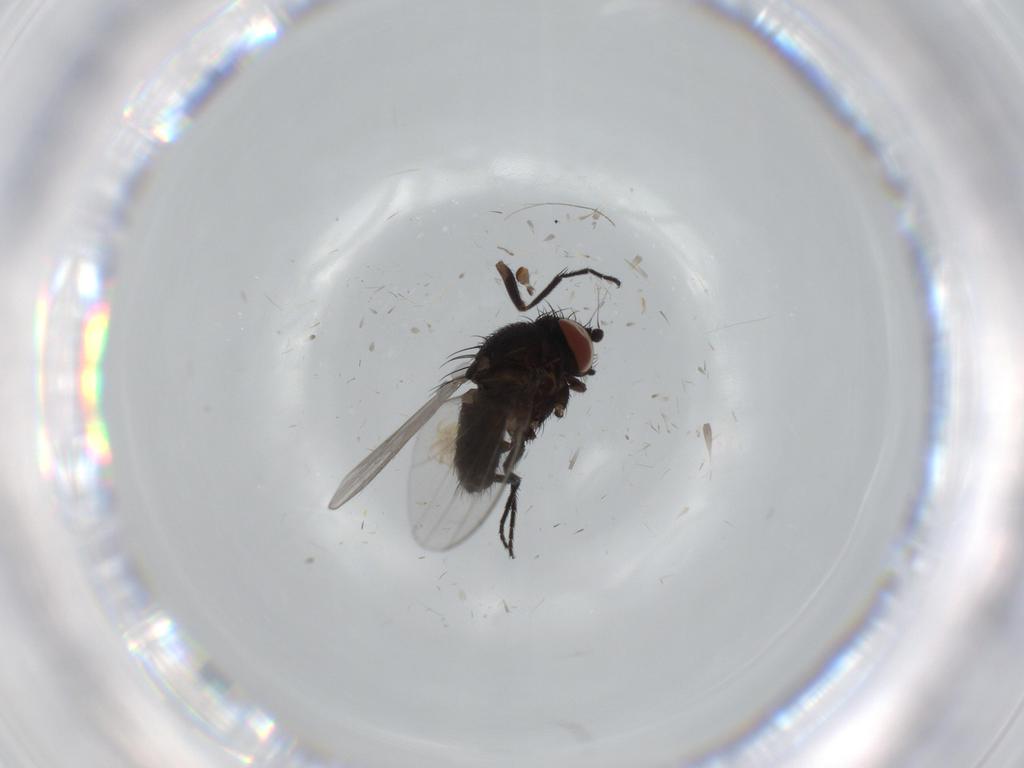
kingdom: Animalia
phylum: Arthropoda
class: Insecta
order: Diptera
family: Milichiidae
